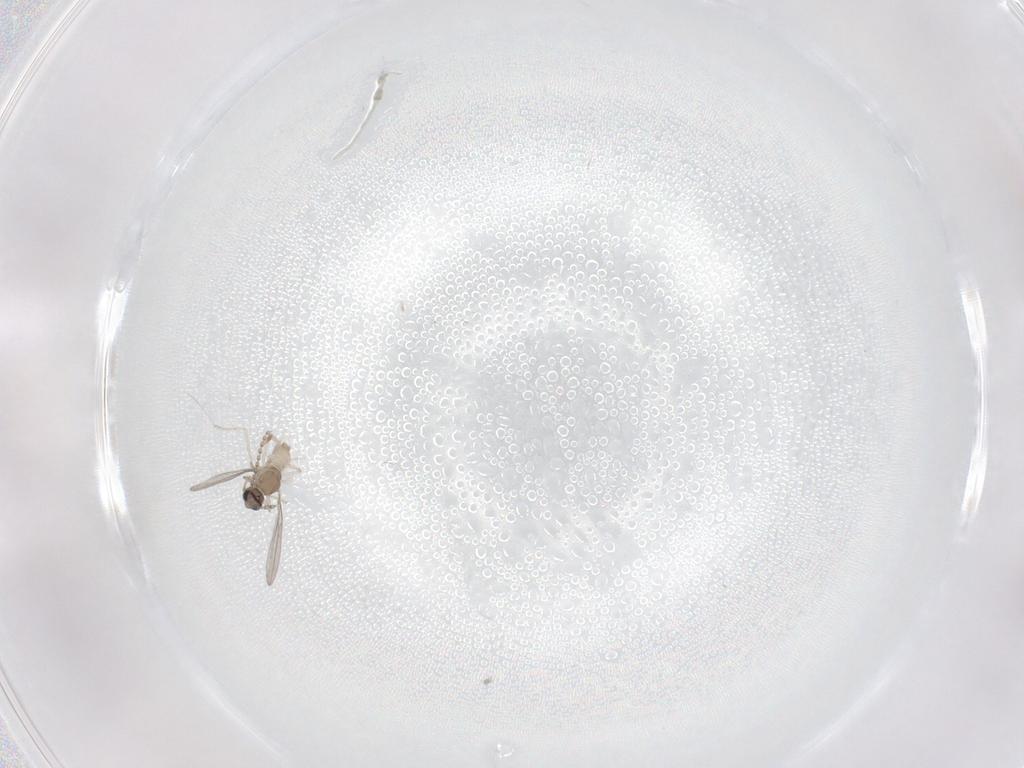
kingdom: Animalia
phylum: Arthropoda
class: Insecta
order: Diptera
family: Cecidomyiidae
